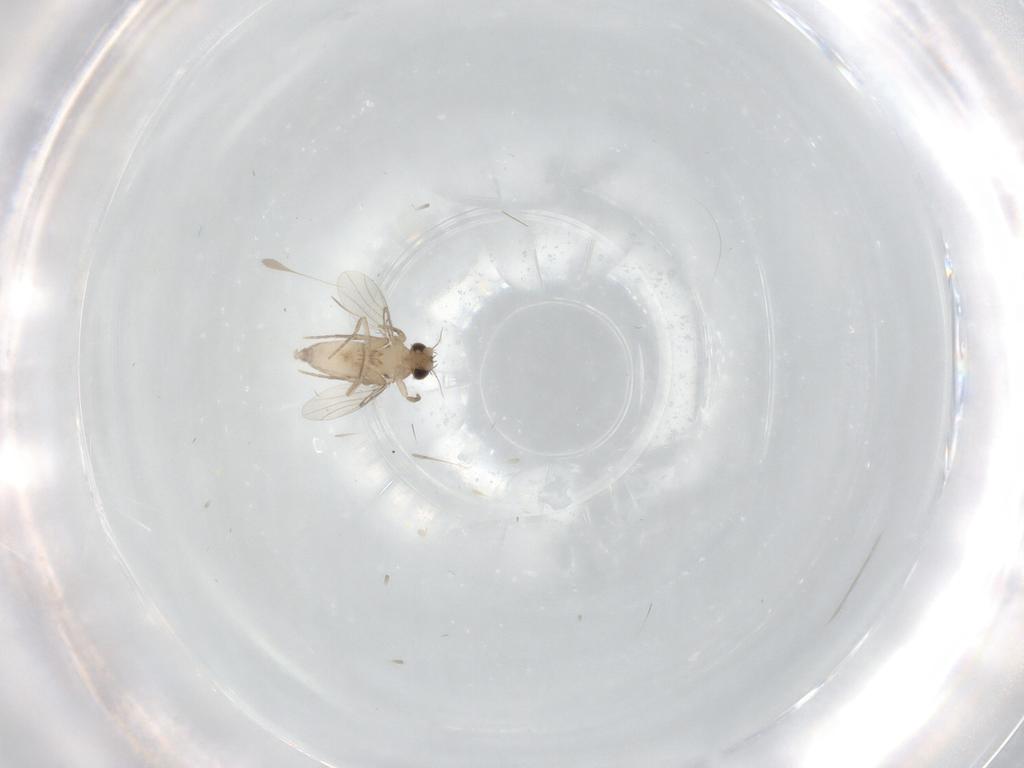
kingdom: Animalia
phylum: Arthropoda
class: Insecta
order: Diptera
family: Phoridae
